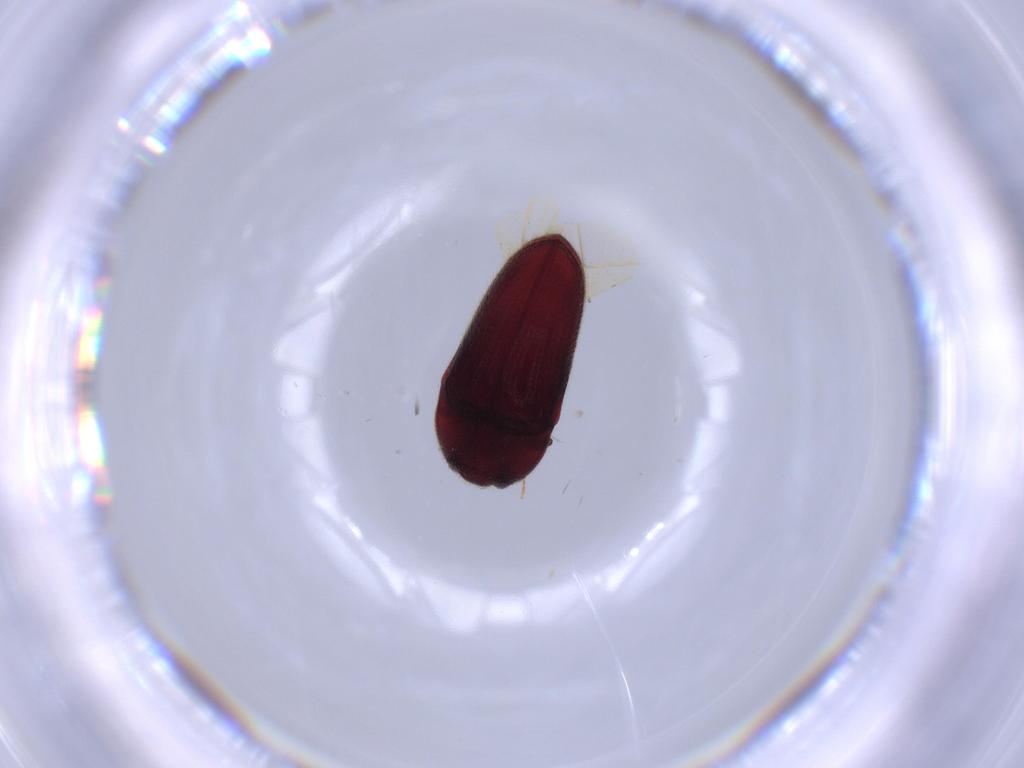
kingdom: Animalia
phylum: Arthropoda
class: Insecta
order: Coleoptera
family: Throscidae
